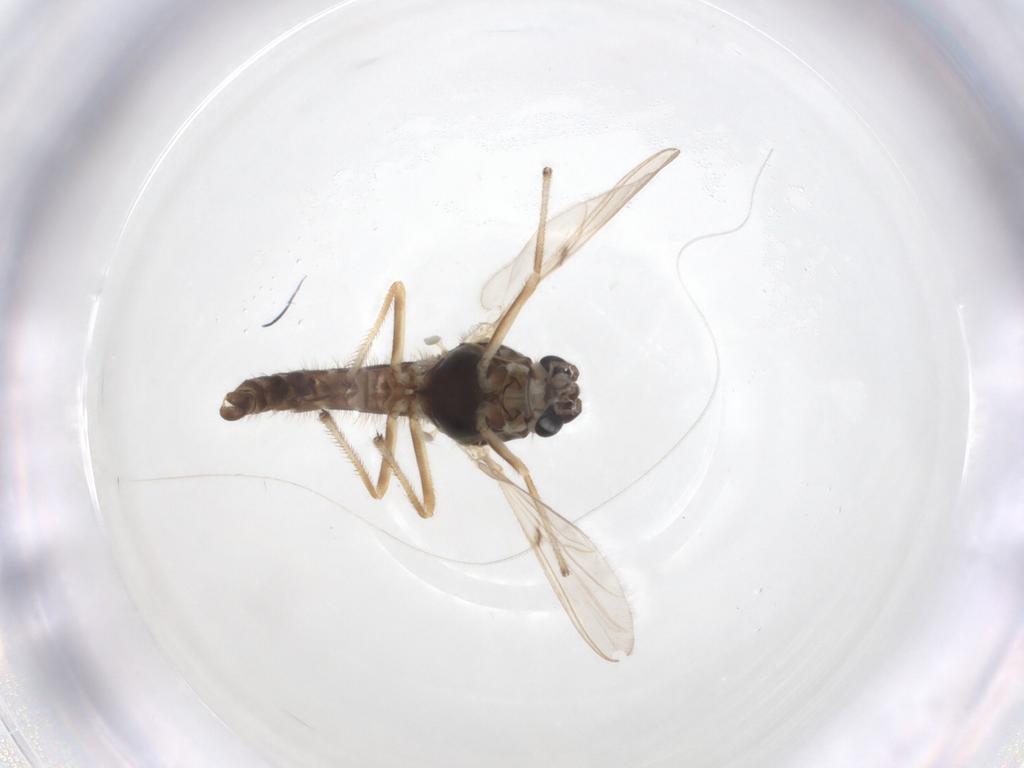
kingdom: Animalia
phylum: Arthropoda
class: Insecta
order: Diptera
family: Chironomidae
